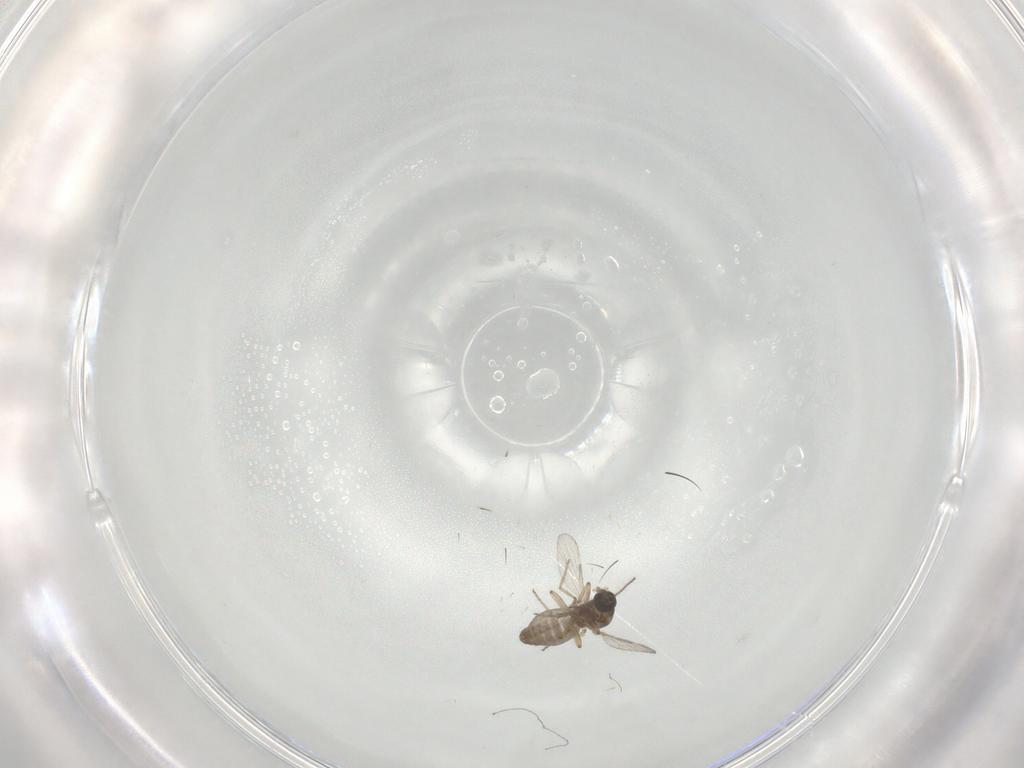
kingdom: Animalia
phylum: Arthropoda
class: Insecta
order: Diptera
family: Ceratopogonidae
